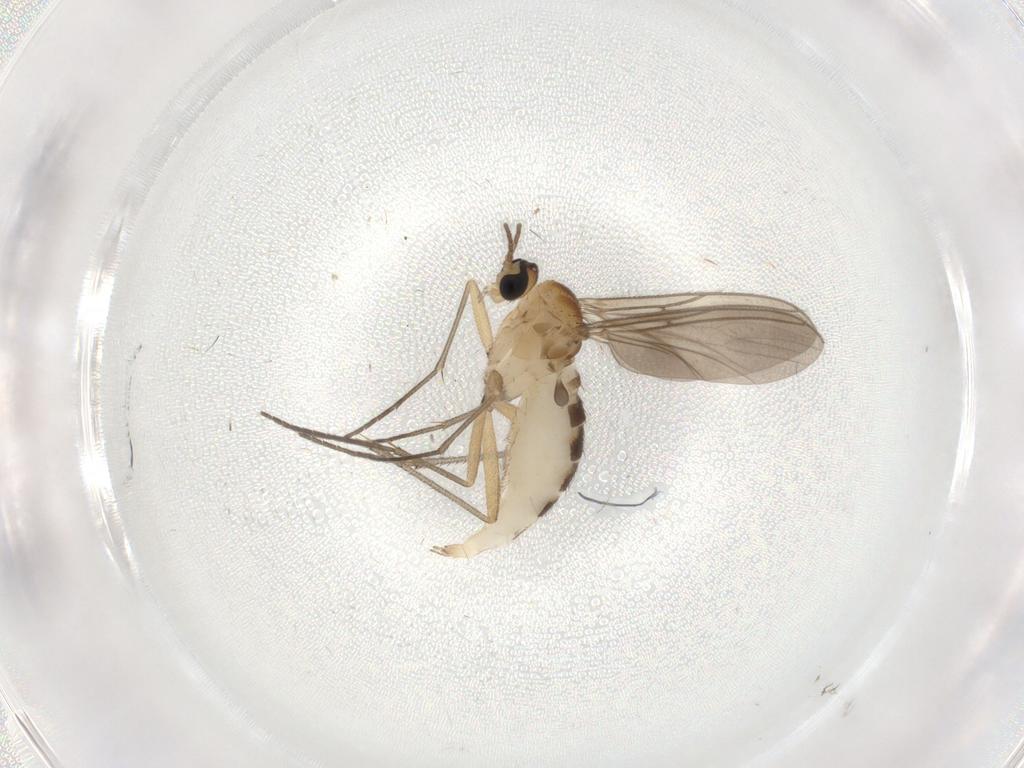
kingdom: Animalia
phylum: Arthropoda
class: Insecta
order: Diptera
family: Sciaridae
